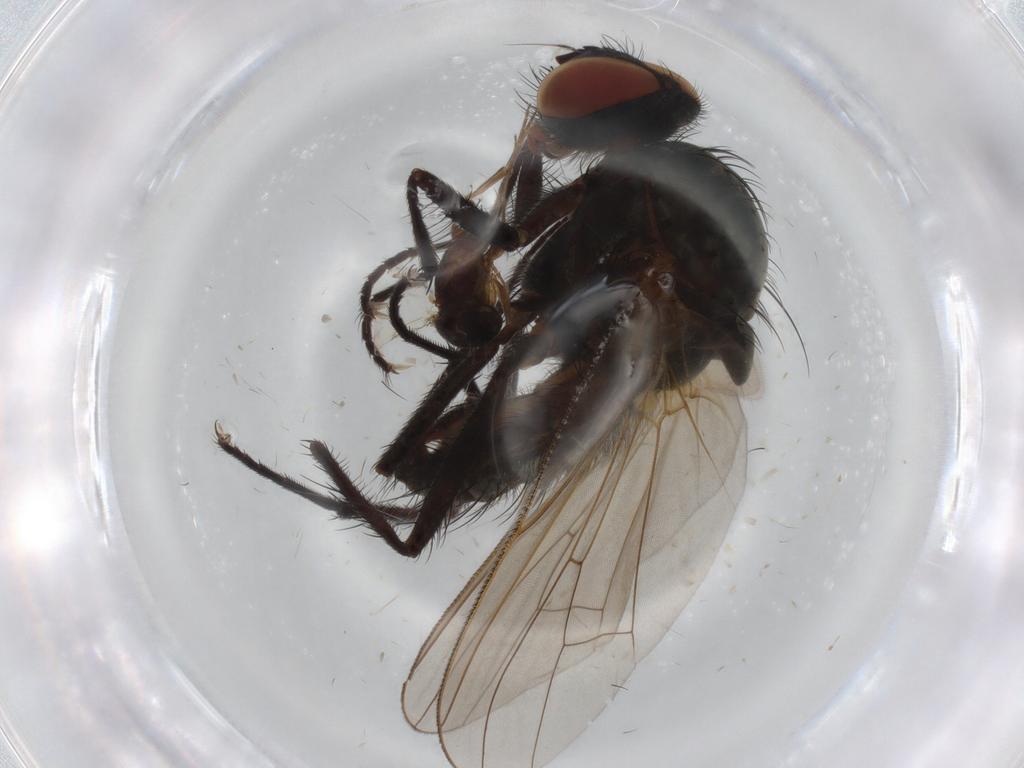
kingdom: Animalia
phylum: Arthropoda
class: Insecta
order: Diptera
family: Anthomyiidae
